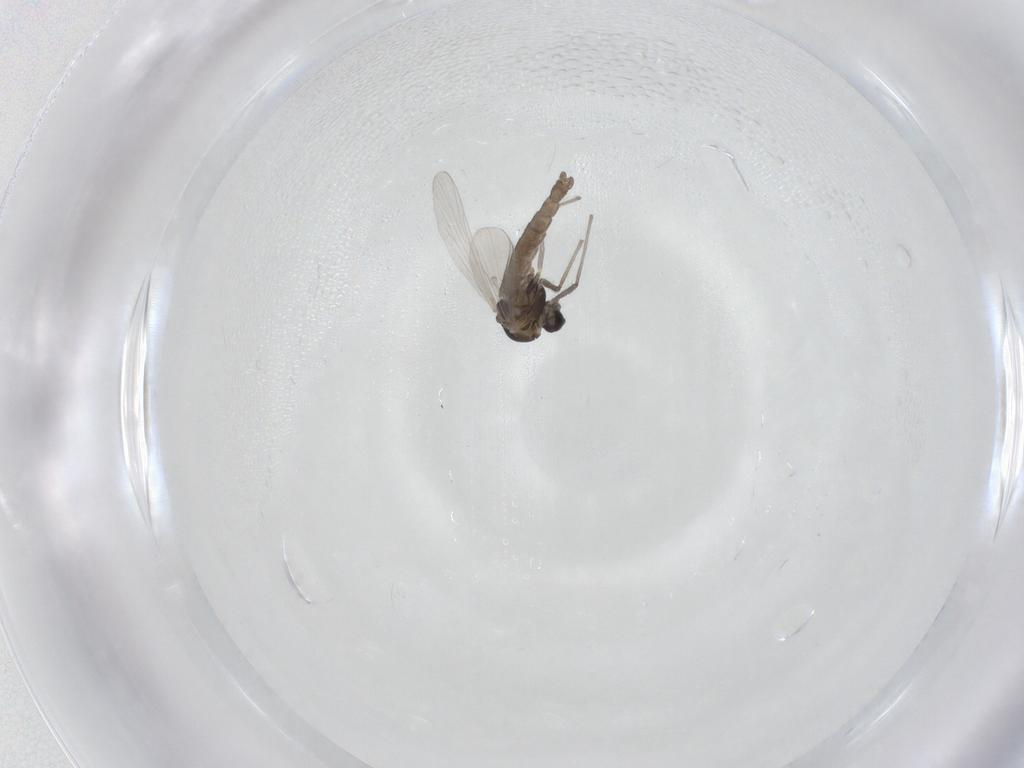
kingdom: Animalia
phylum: Arthropoda
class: Insecta
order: Diptera
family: Chironomidae
